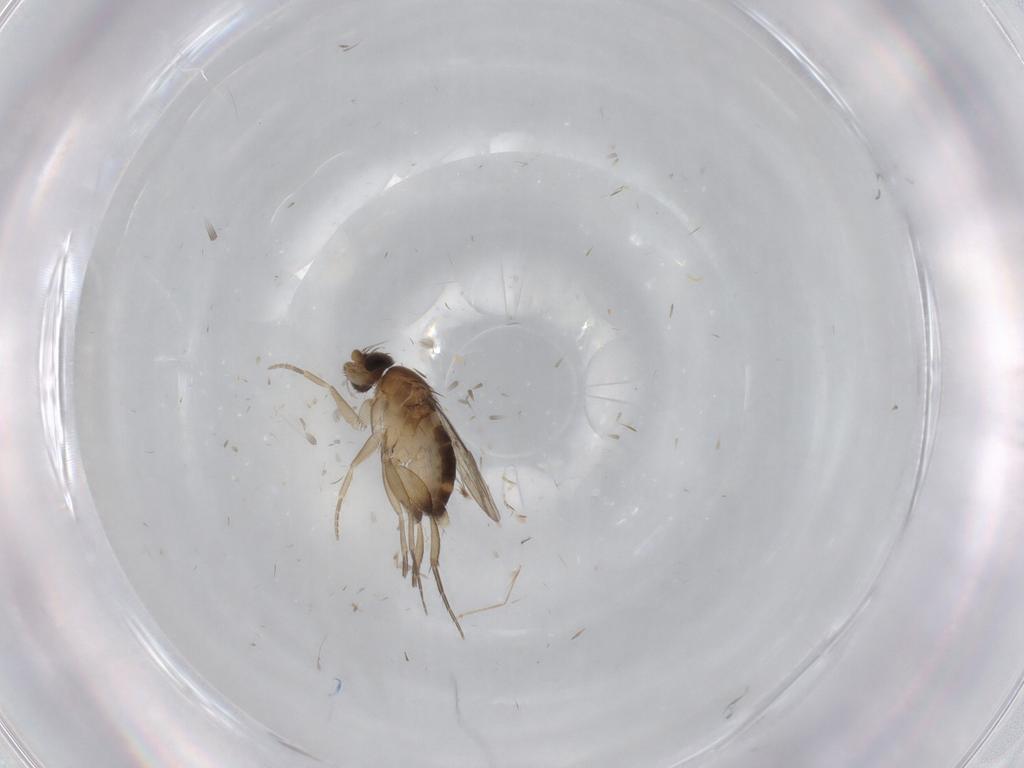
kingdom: Animalia
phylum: Arthropoda
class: Insecta
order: Diptera
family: Phoridae
